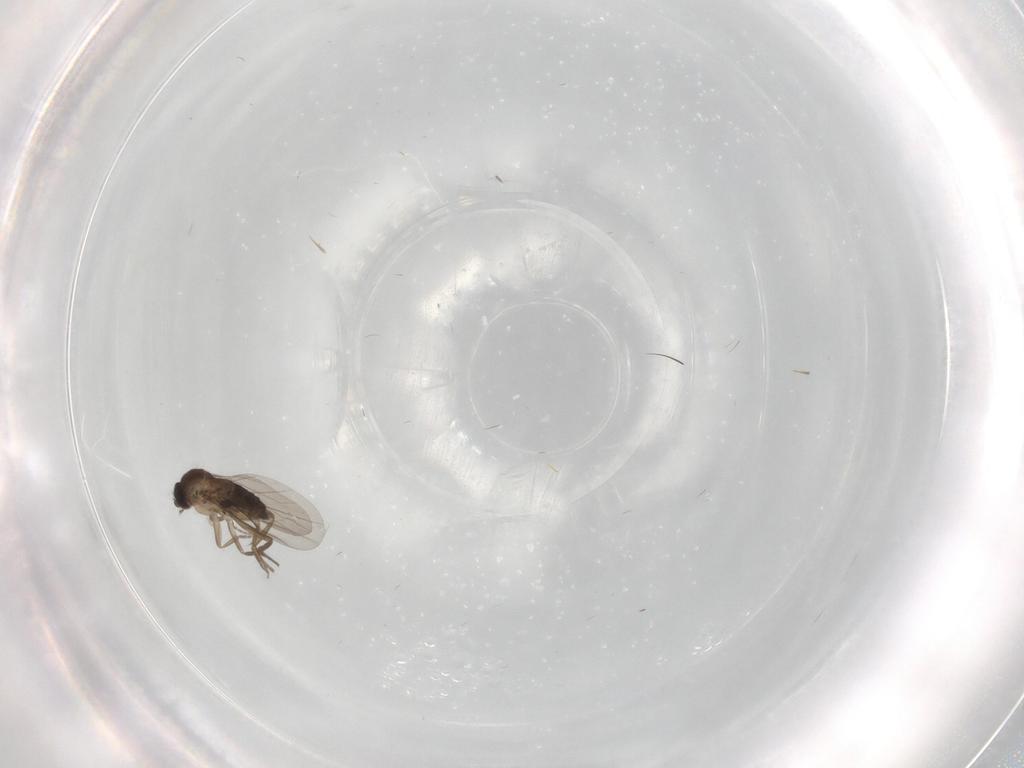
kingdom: Animalia
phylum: Arthropoda
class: Insecta
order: Diptera
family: Phoridae
